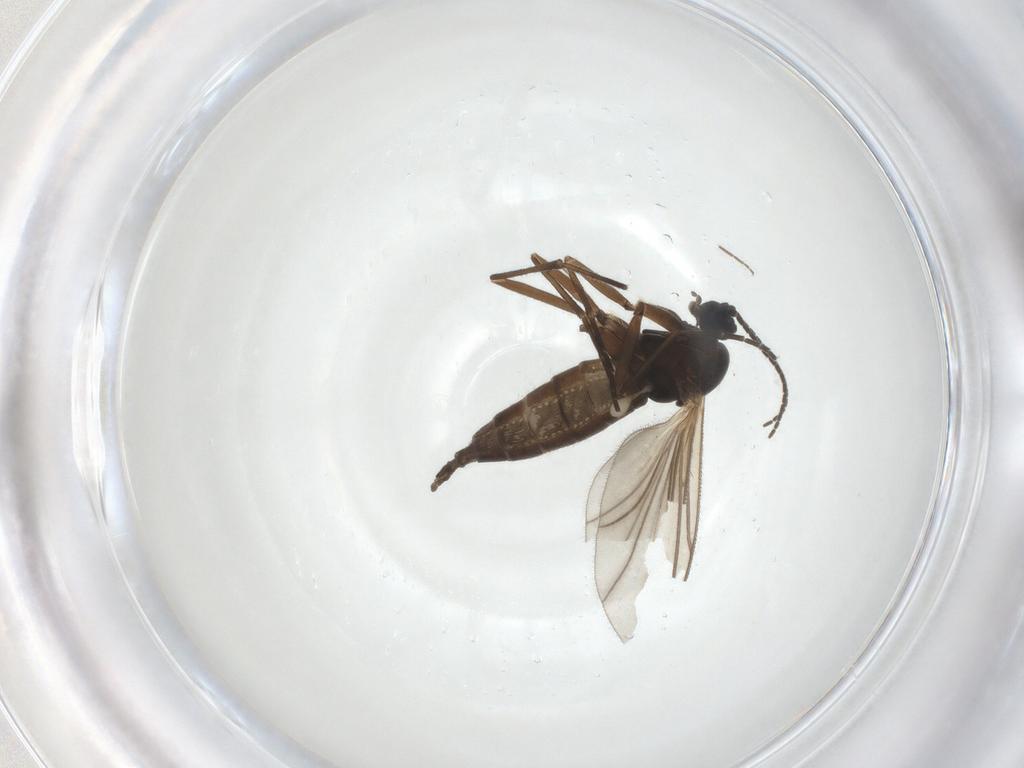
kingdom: Animalia
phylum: Arthropoda
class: Insecta
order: Diptera
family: Sciaridae
